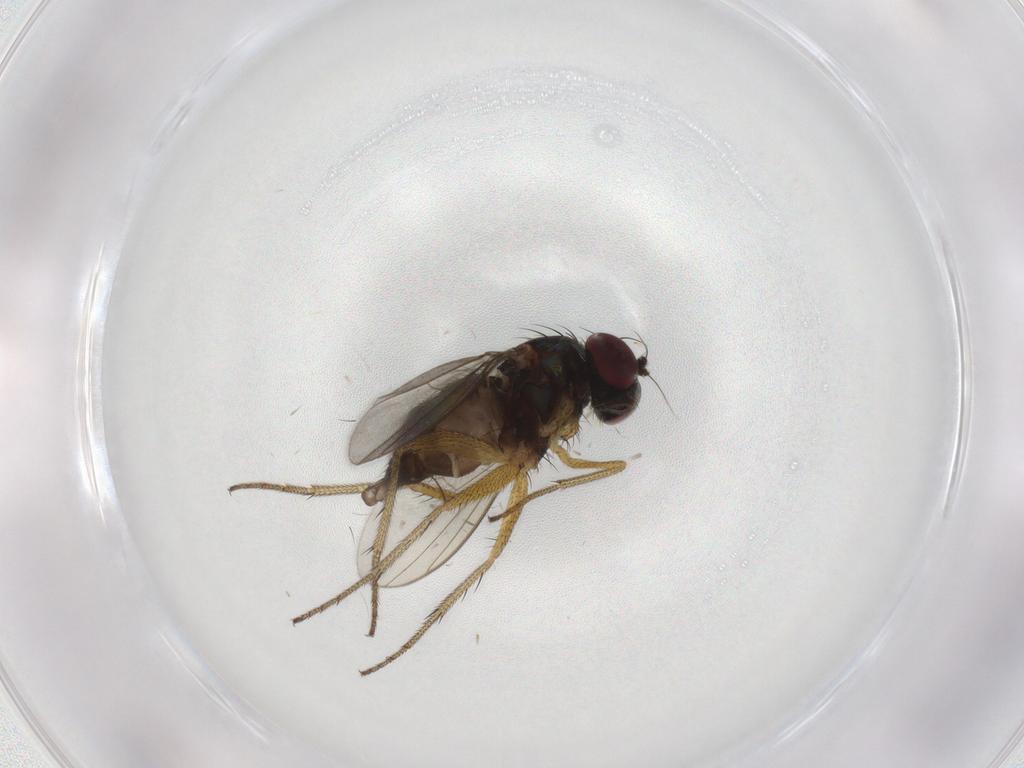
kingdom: Animalia
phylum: Arthropoda
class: Insecta
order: Diptera
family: Dolichopodidae
